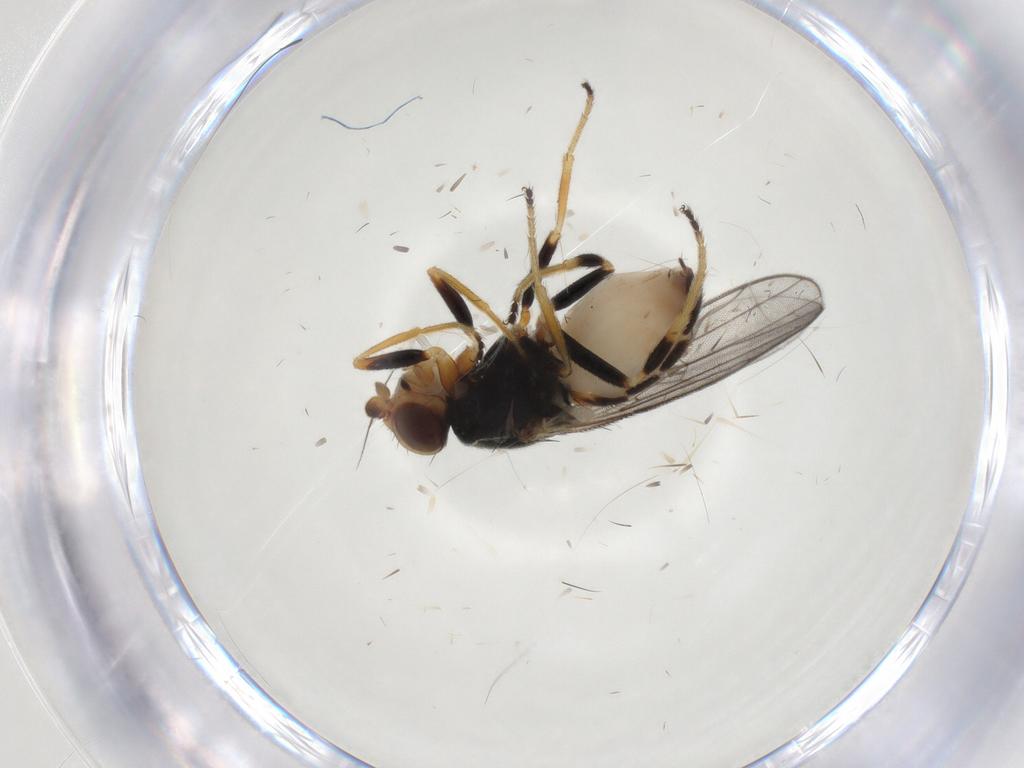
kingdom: Animalia
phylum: Arthropoda
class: Insecta
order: Diptera
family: Chloropidae
